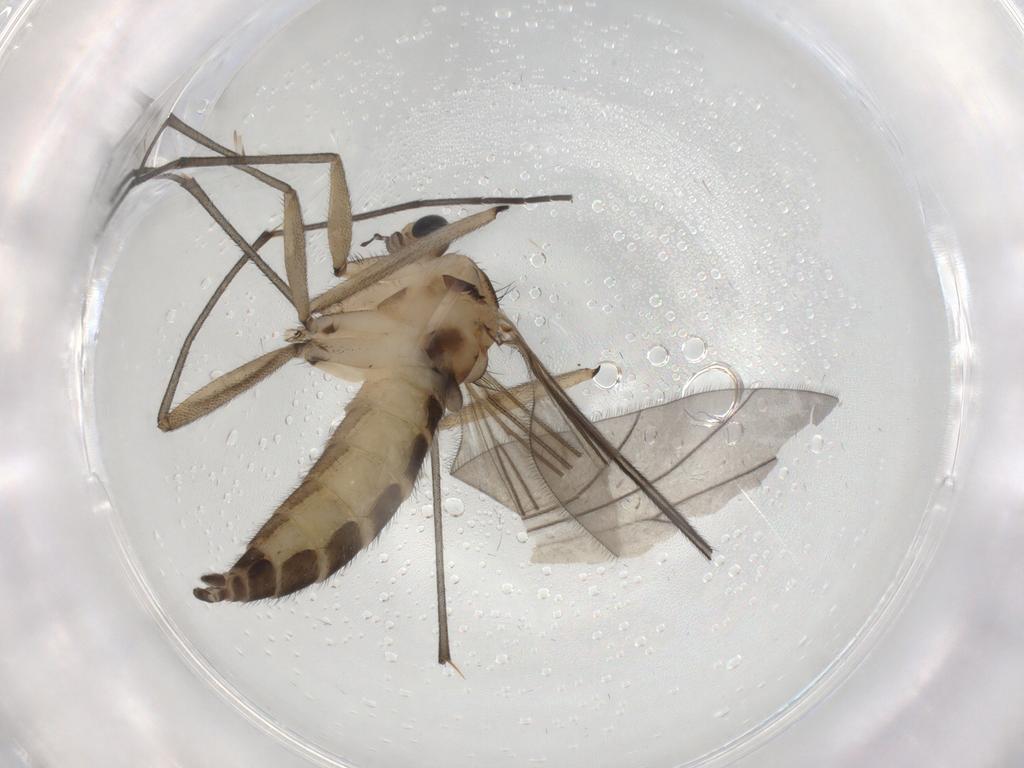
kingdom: Animalia
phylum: Arthropoda
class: Insecta
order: Diptera
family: Sciaridae
